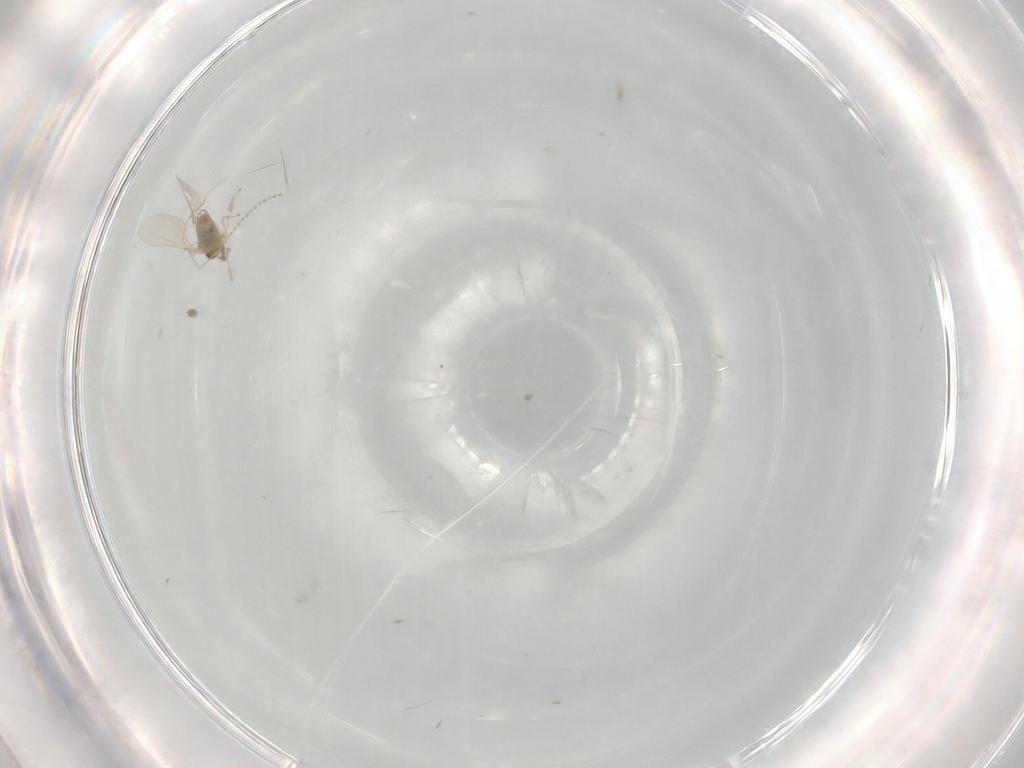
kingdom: Animalia
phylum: Arthropoda
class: Insecta
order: Diptera
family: Cecidomyiidae
